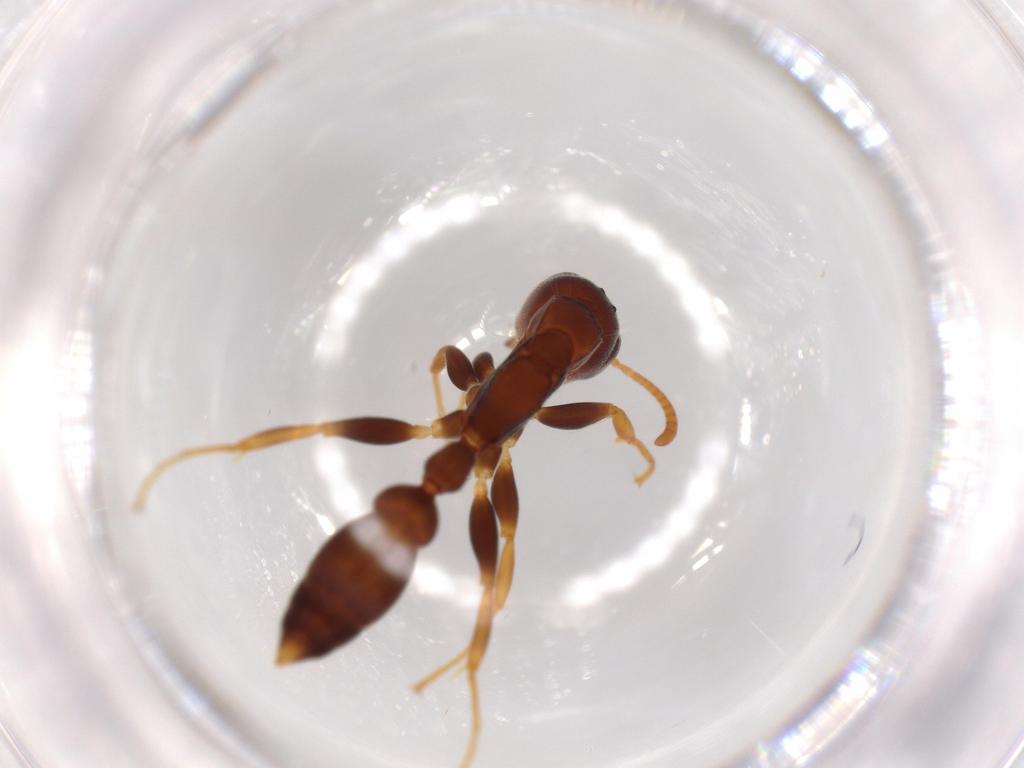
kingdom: Animalia
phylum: Arthropoda
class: Insecta
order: Hymenoptera
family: Formicidae
